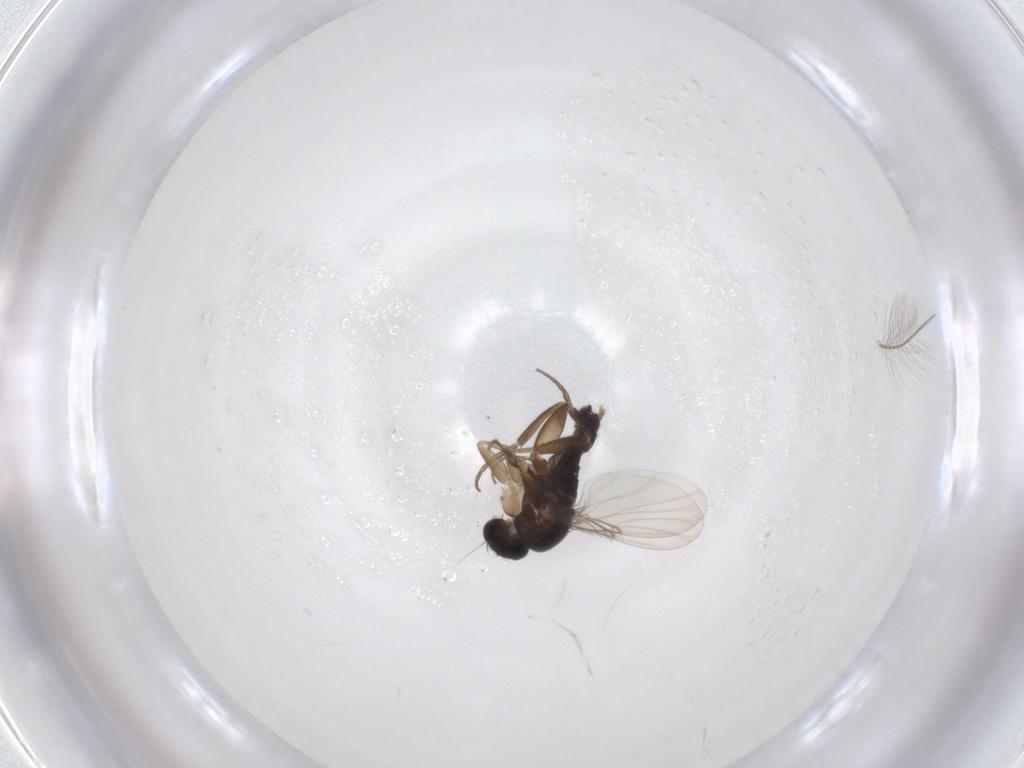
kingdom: Animalia
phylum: Arthropoda
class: Insecta
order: Diptera
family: Phoridae
